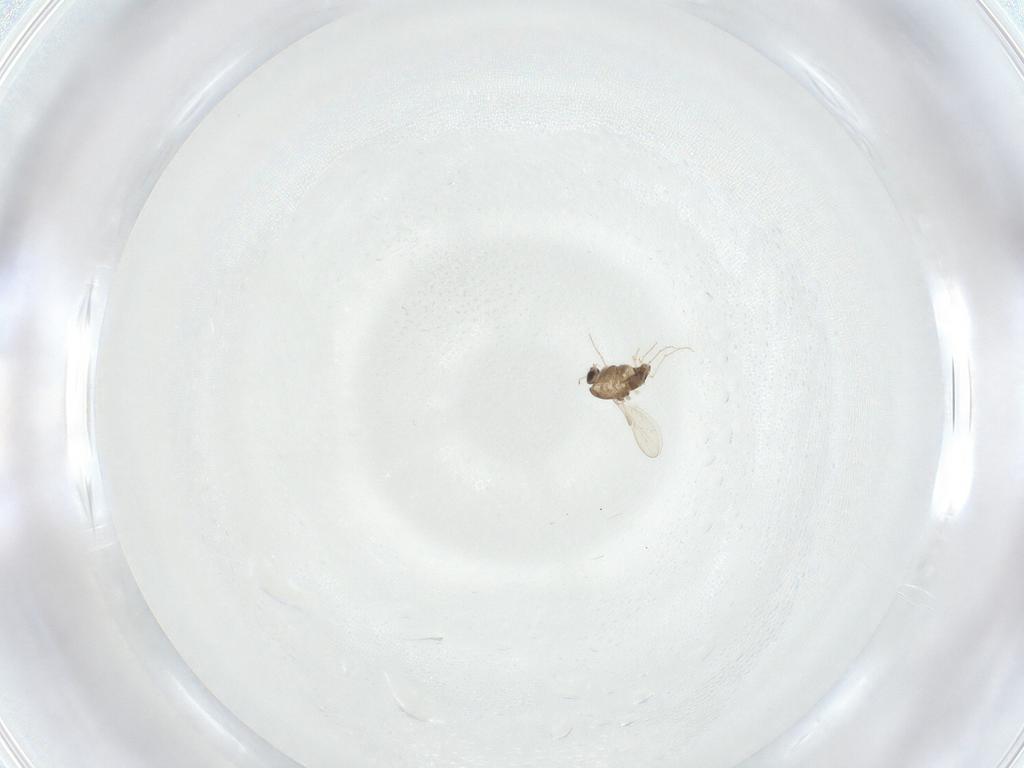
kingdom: Animalia
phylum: Arthropoda
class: Insecta
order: Diptera
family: Chironomidae
